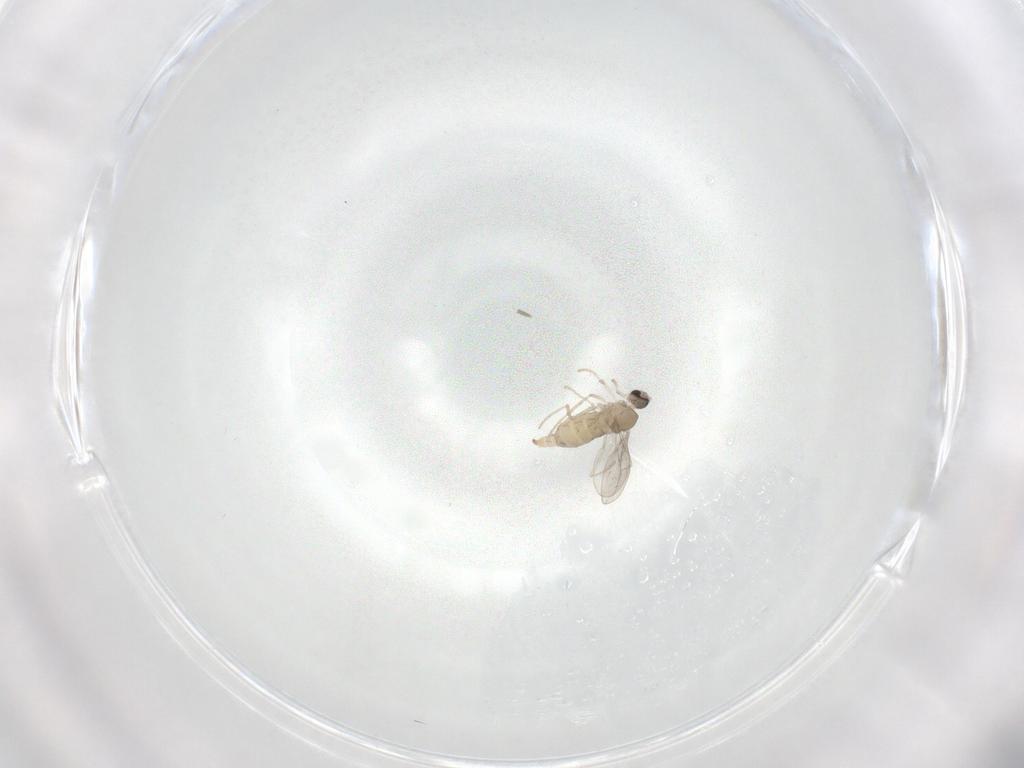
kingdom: Animalia
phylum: Arthropoda
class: Insecta
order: Diptera
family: Cecidomyiidae
